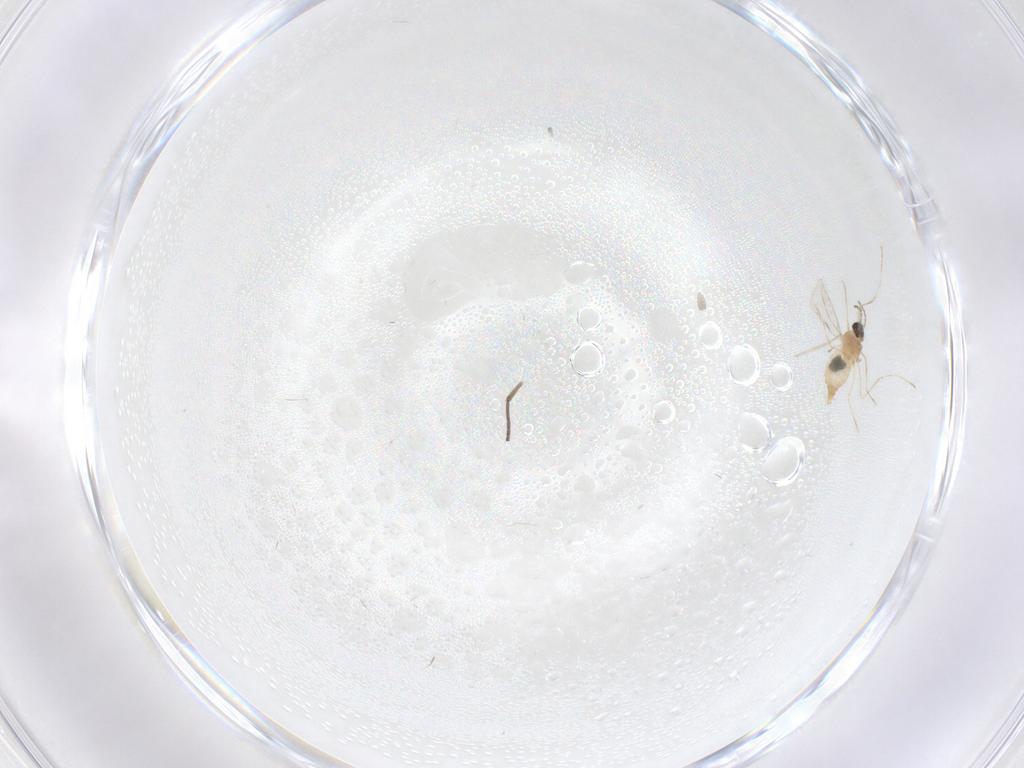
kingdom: Animalia
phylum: Arthropoda
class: Insecta
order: Diptera
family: Cecidomyiidae
